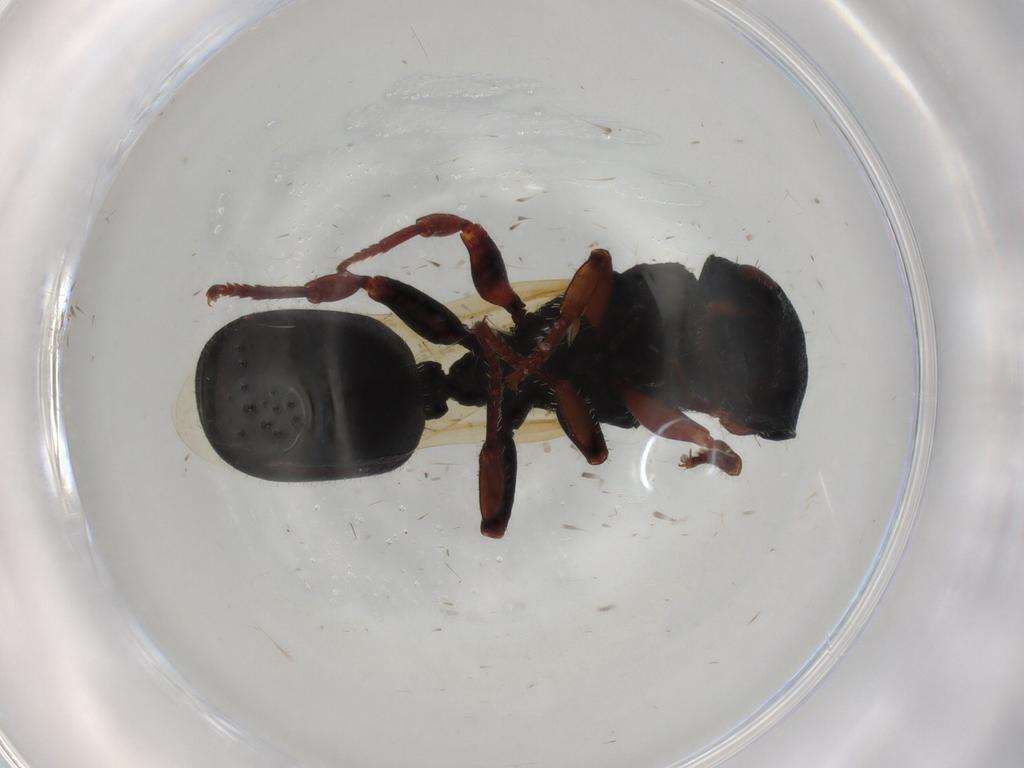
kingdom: Animalia
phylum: Arthropoda
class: Insecta
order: Hymenoptera
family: Formicidae
